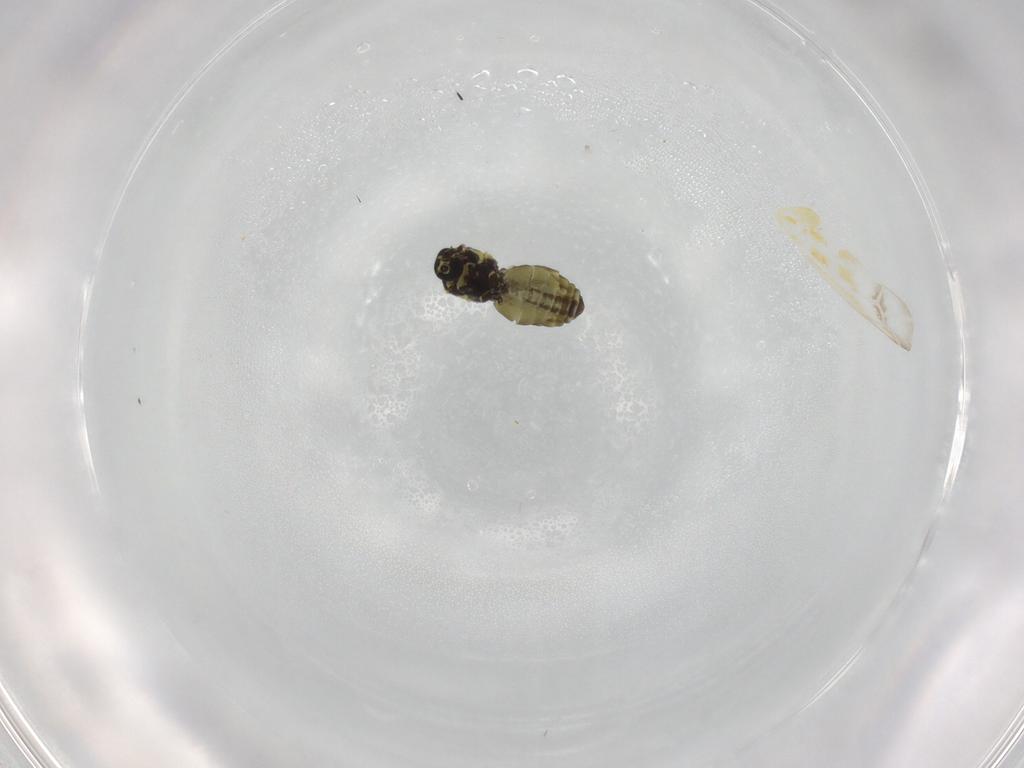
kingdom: Animalia
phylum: Arthropoda
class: Insecta
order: Diptera
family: Ceratopogonidae
